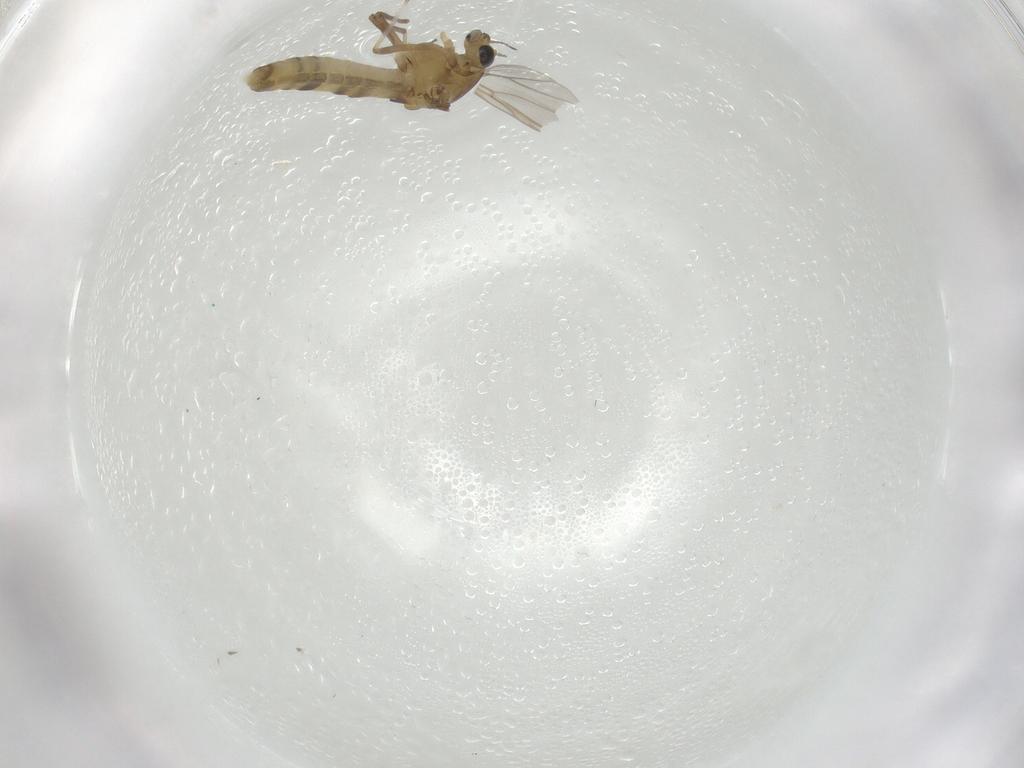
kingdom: Animalia
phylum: Arthropoda
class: Insecta
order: Diptera
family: Chironomidae
